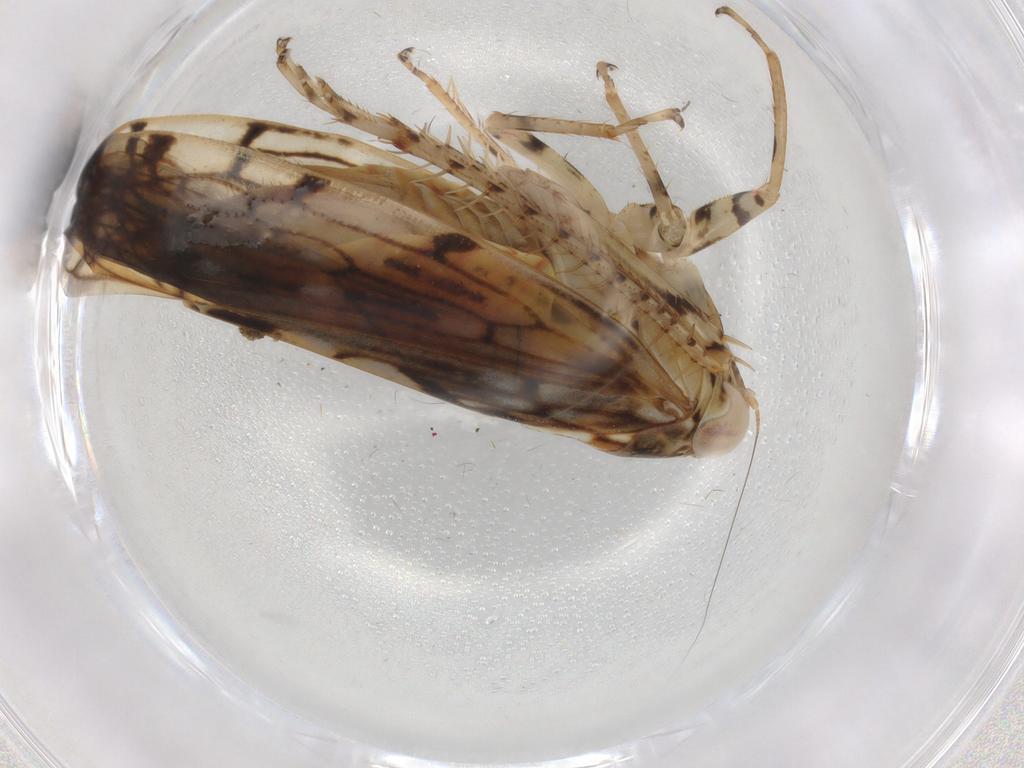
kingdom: Animalia
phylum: Arthropoda
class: Insecta
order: Hemiptera
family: Cicadellidae
